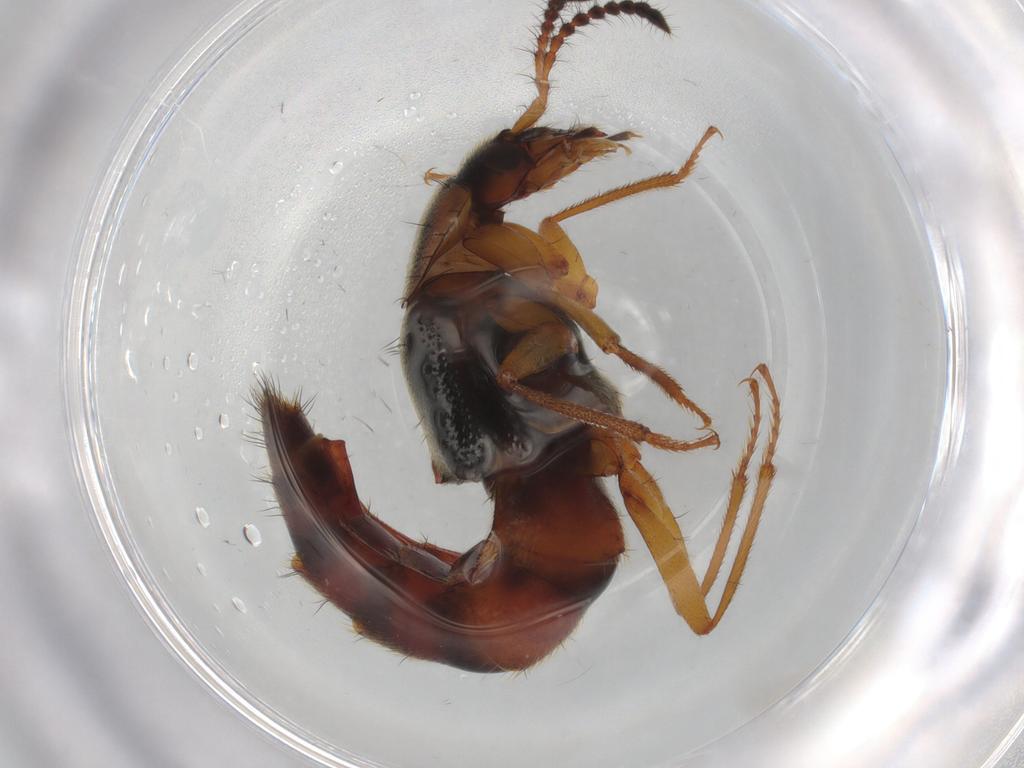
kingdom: Animalia
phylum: Arthropoda
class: Insecta
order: Coleoptera
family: Staphylinidae
